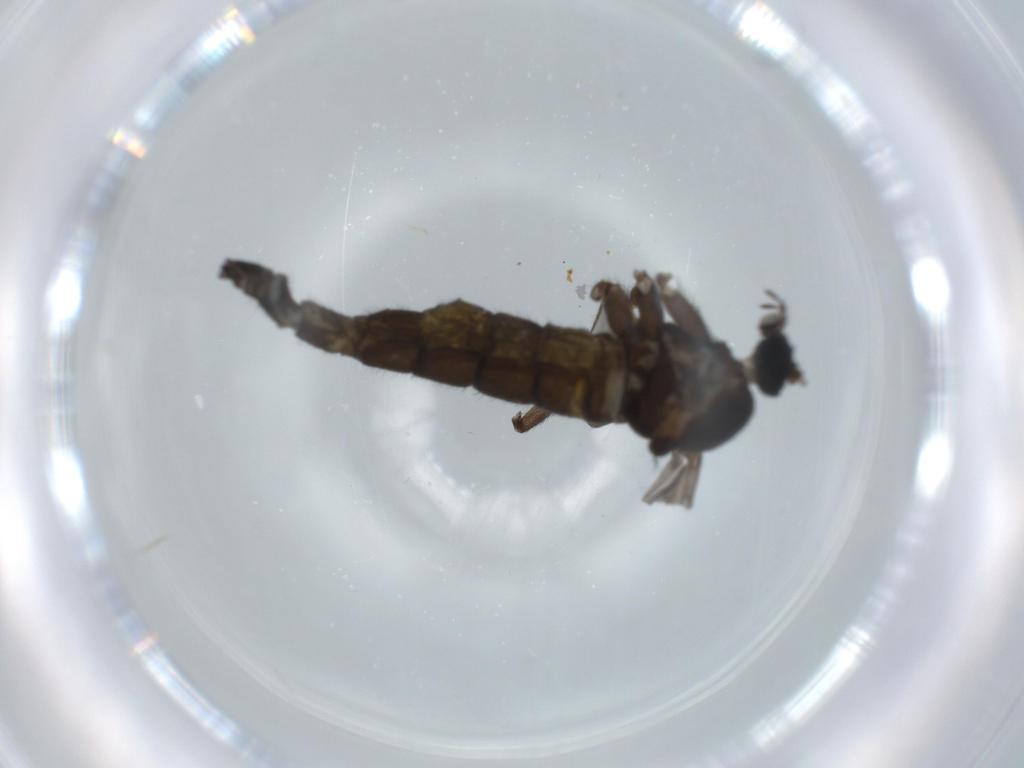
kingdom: Animalia
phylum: Arthropoda
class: Insecta
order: Diptera
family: Sciaridae
